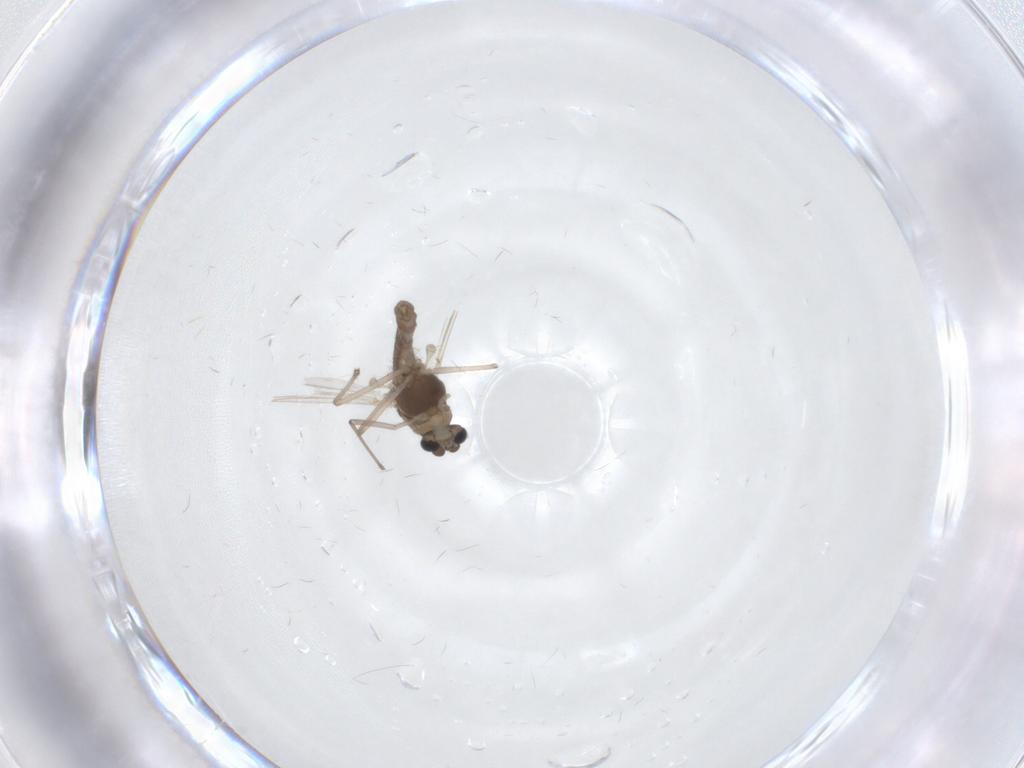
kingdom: Animalia
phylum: Arthropoda
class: Insecta
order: Diptera
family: Chironomidae
